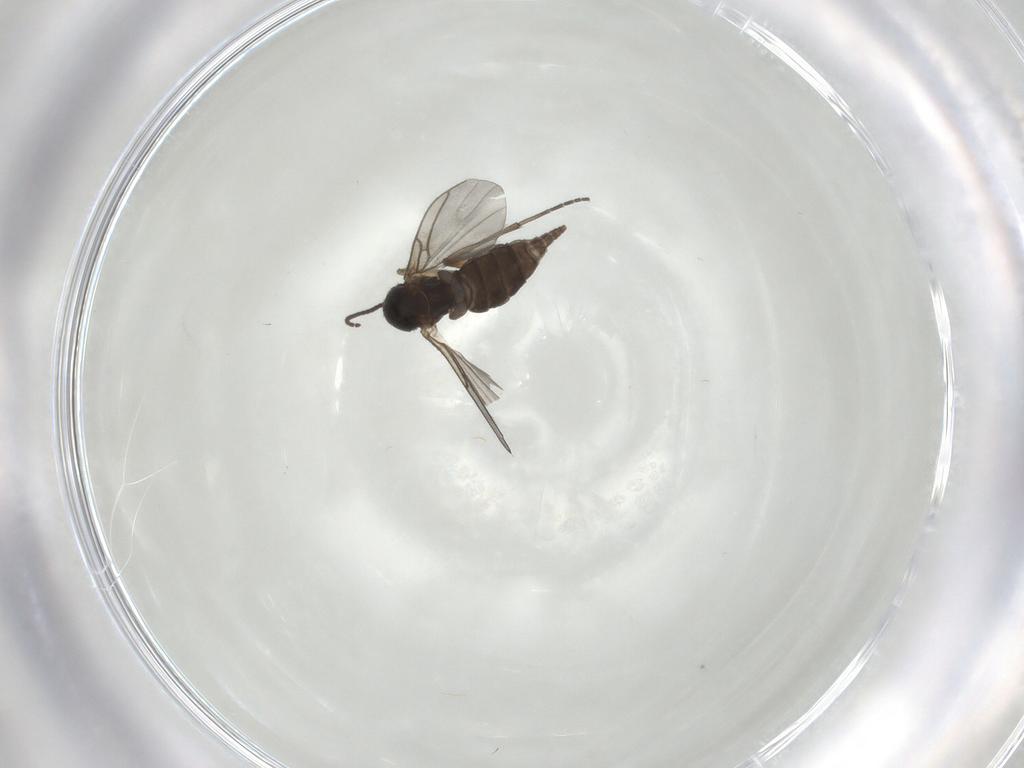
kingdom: Animalia
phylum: Arthropoda
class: Insecta
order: Diptera
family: Sciaridae
